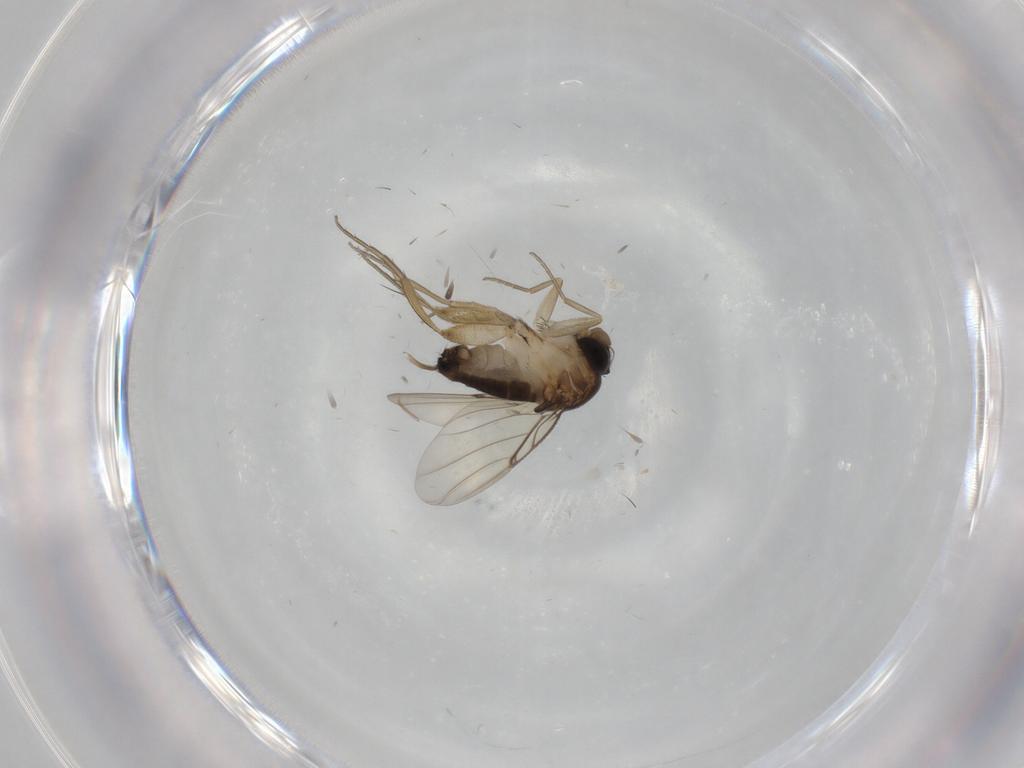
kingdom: Animalia
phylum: Arthropoda
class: Insecta
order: Diptera
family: Phoridae
